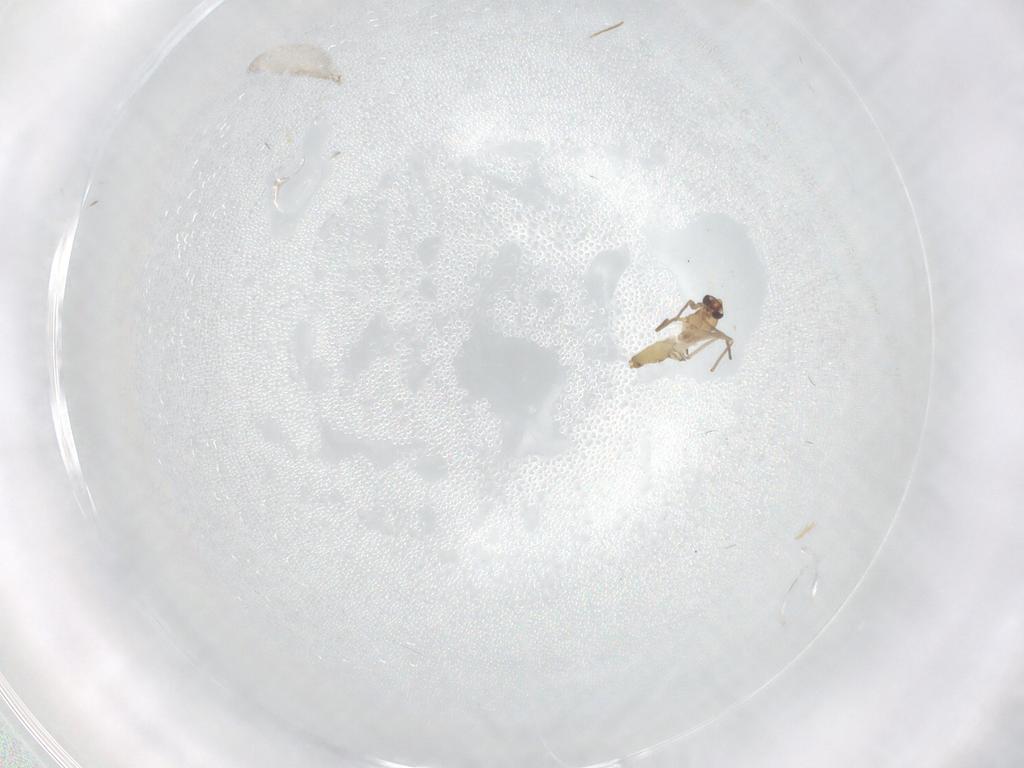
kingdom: Animalia
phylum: Arthropoda
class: Insecta
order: Diptera
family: Chironomidae
